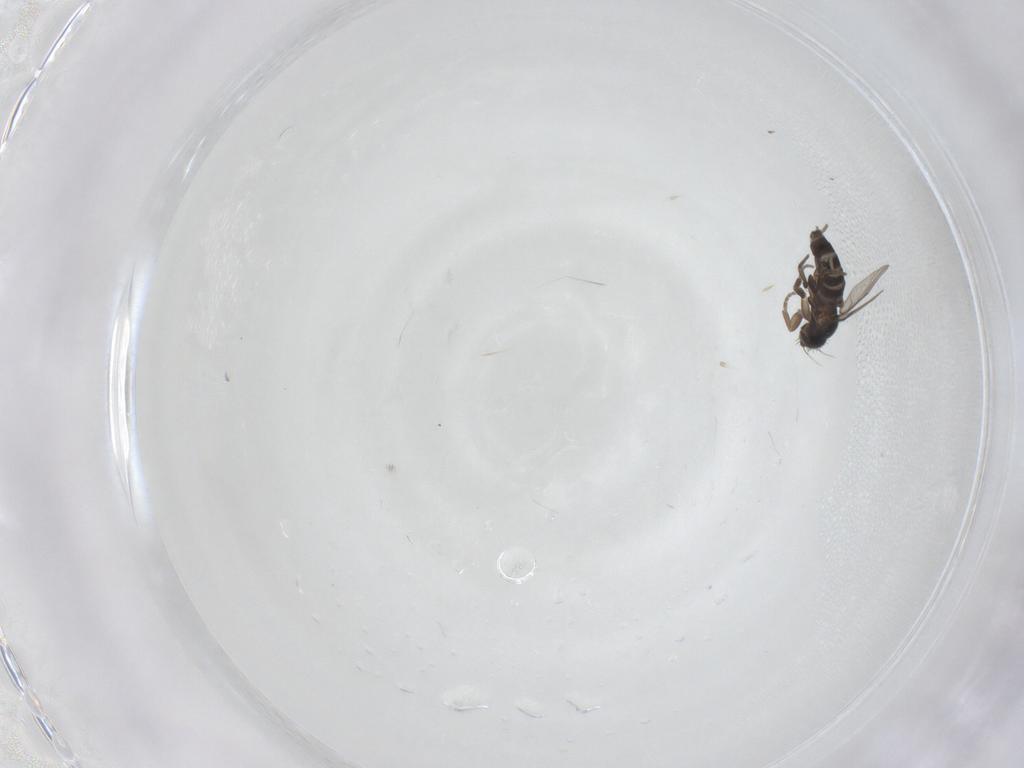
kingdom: Animalia
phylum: Arthropoda
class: Insecta
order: Diptera
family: Phoridae
